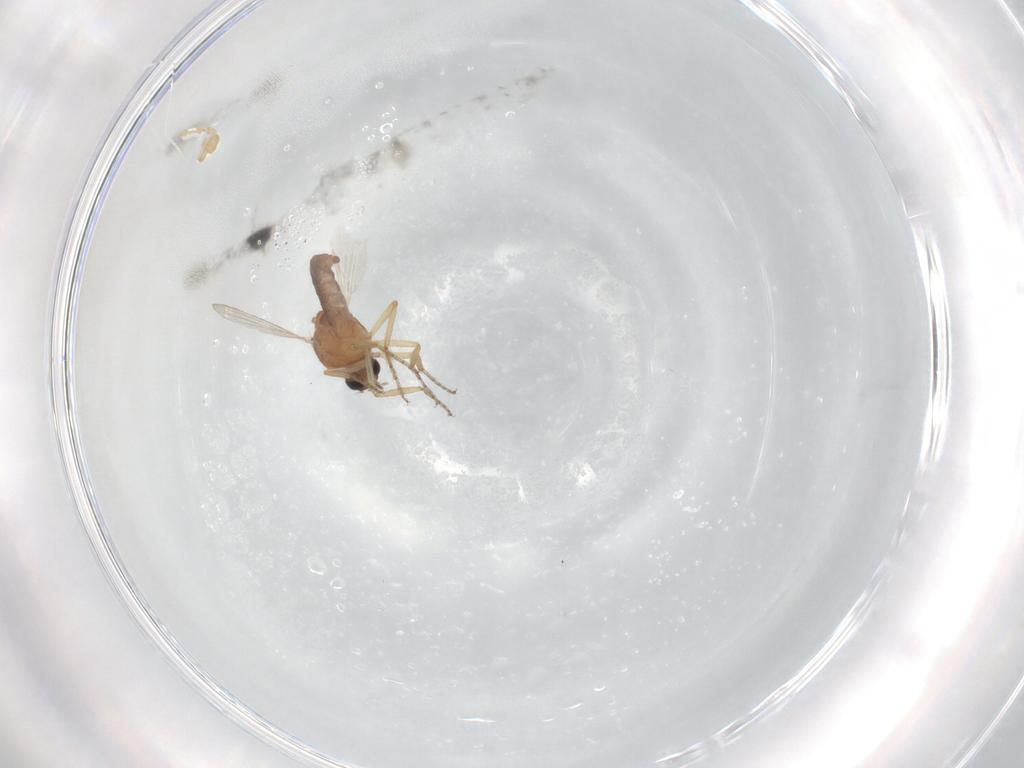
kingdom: Animalia
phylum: Arthropoda
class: Insecta
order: Diptera
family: Ceratopogonidae
